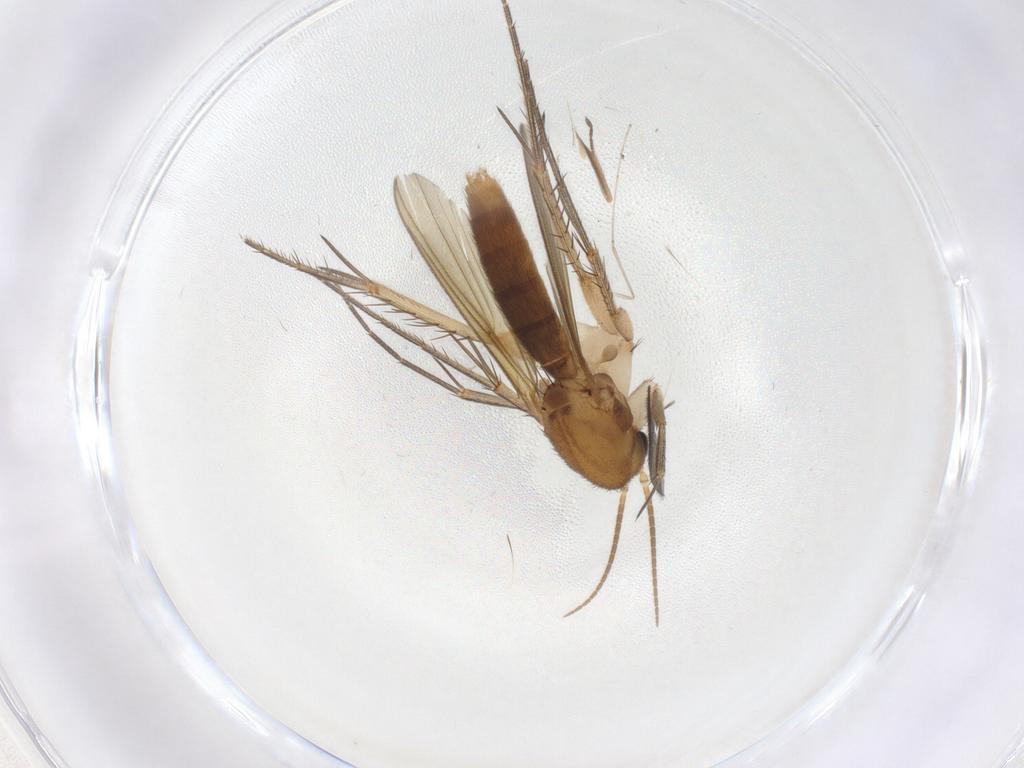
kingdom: Animalia
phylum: Arthropoda
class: Insecta
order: Diptera
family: Mycetophilidae
